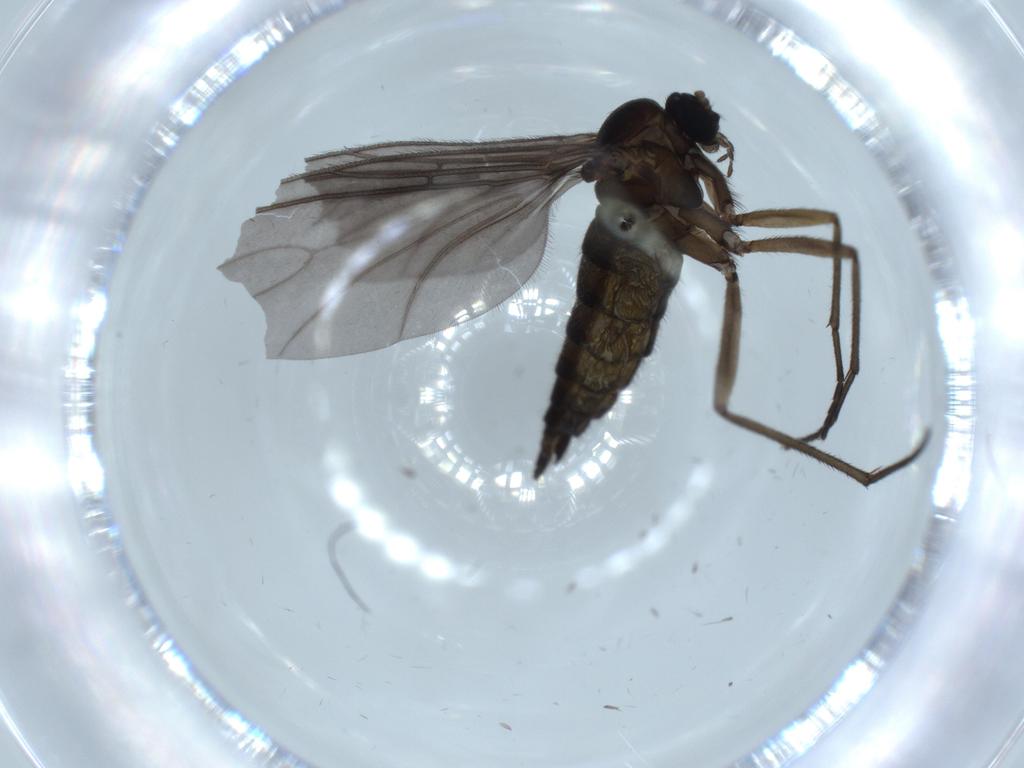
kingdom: Animalia
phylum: Arthropoda
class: Insecta
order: Diptera
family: Sciaridae
